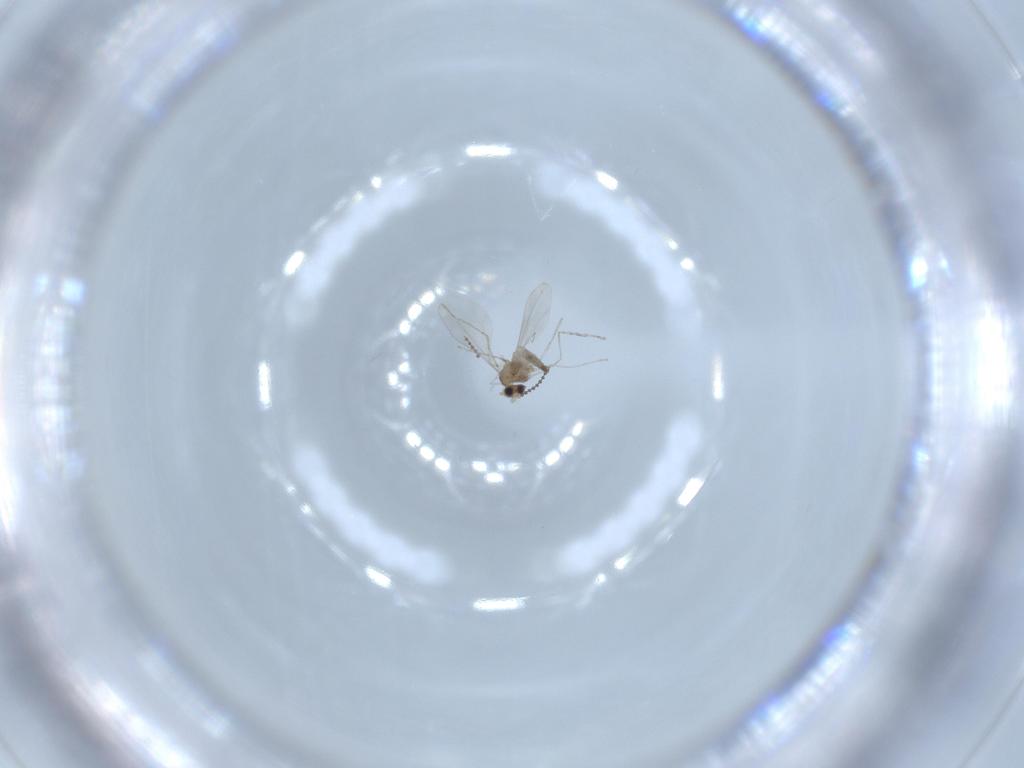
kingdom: Animalia
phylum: Arthropoda
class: Insecta
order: Diptera
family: Cecidomyiidae
